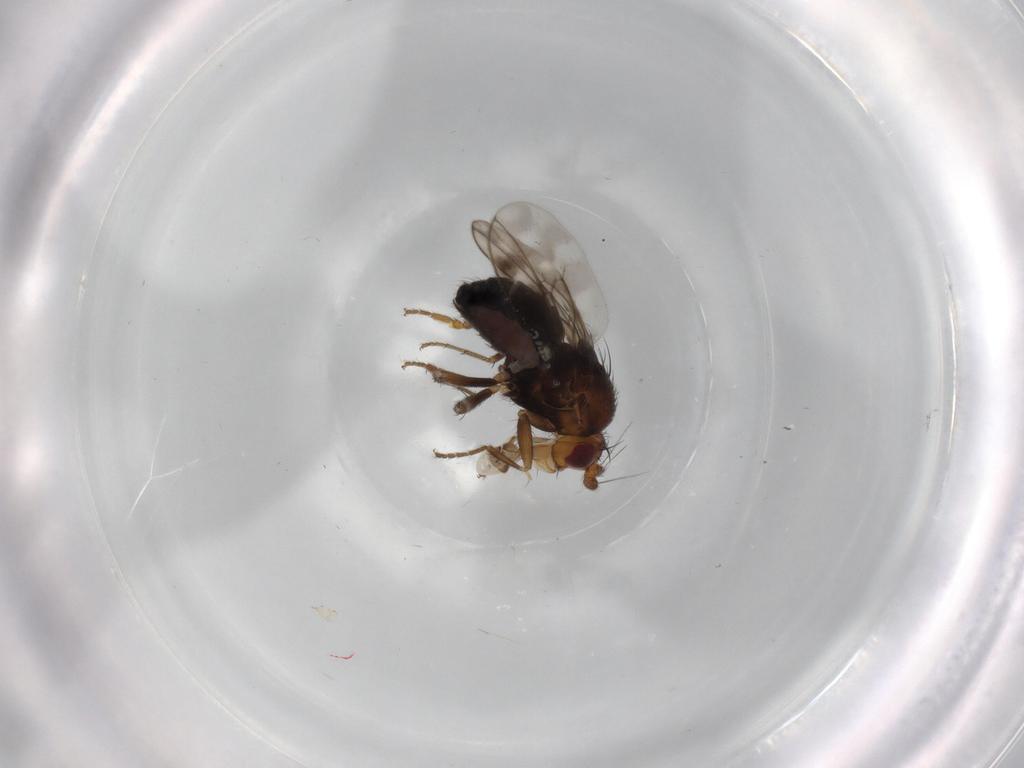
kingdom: Animalia
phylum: Arthropoda
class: Insecta
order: Diptera
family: Sphaeroceridae
